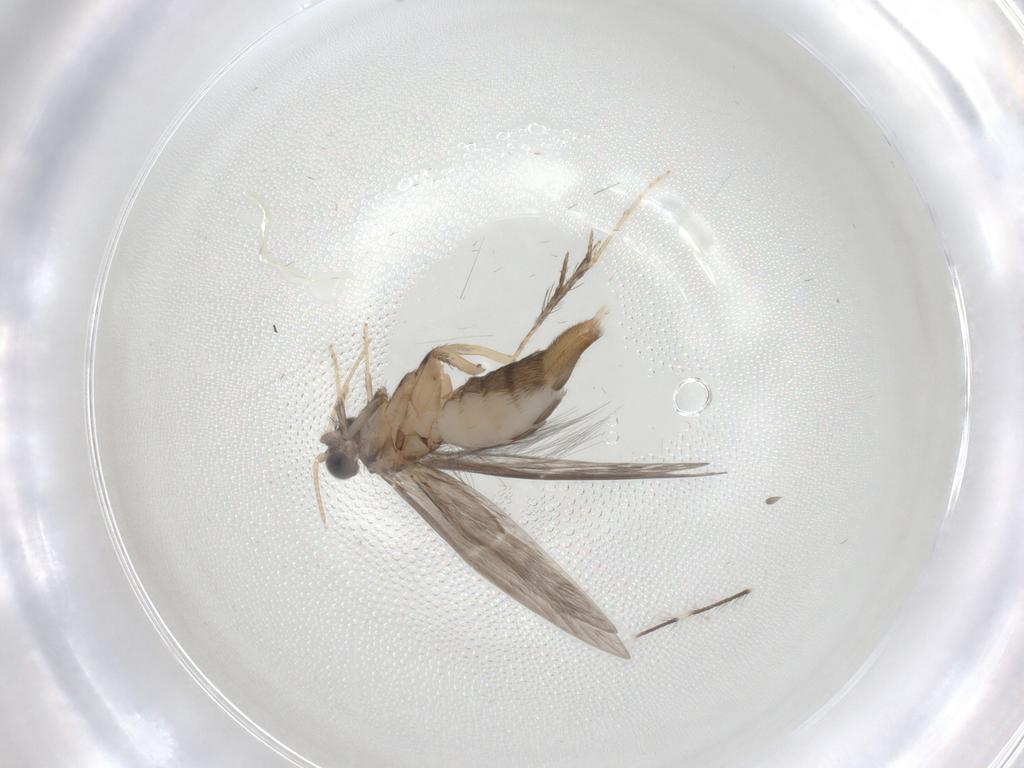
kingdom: Animalia
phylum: Arthropoda
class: Insecta
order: Trichoptera
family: Hydroptilidae
